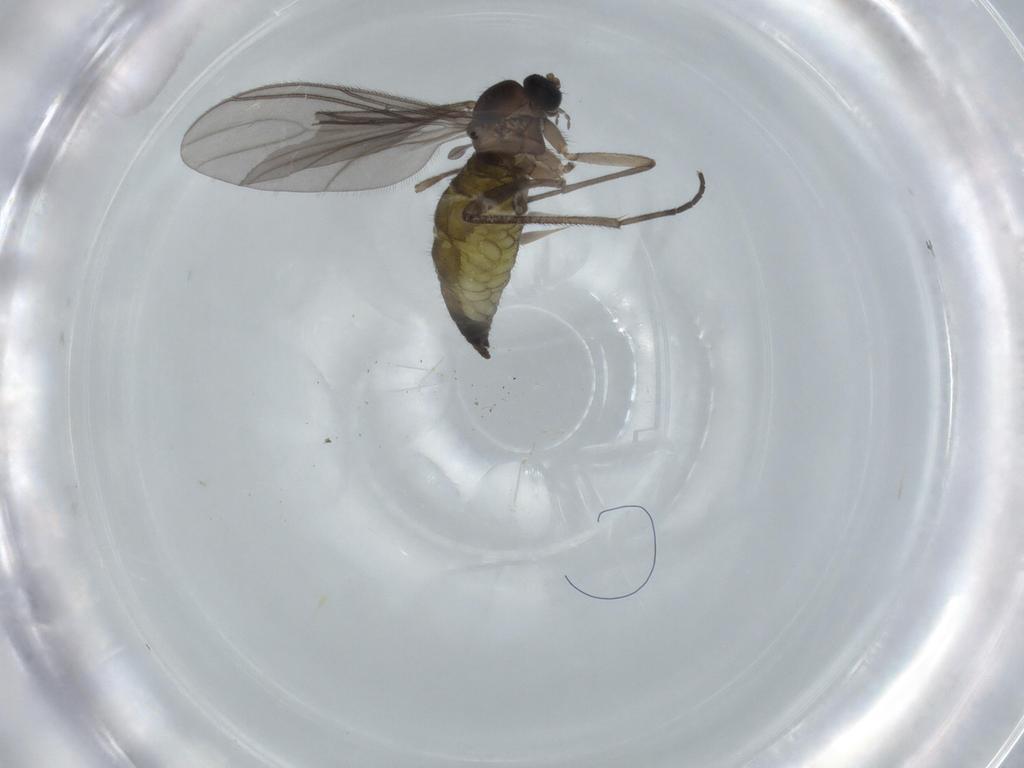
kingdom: Animalia
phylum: Arthropoda
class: Insecta
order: Diptera
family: Sciaridae
